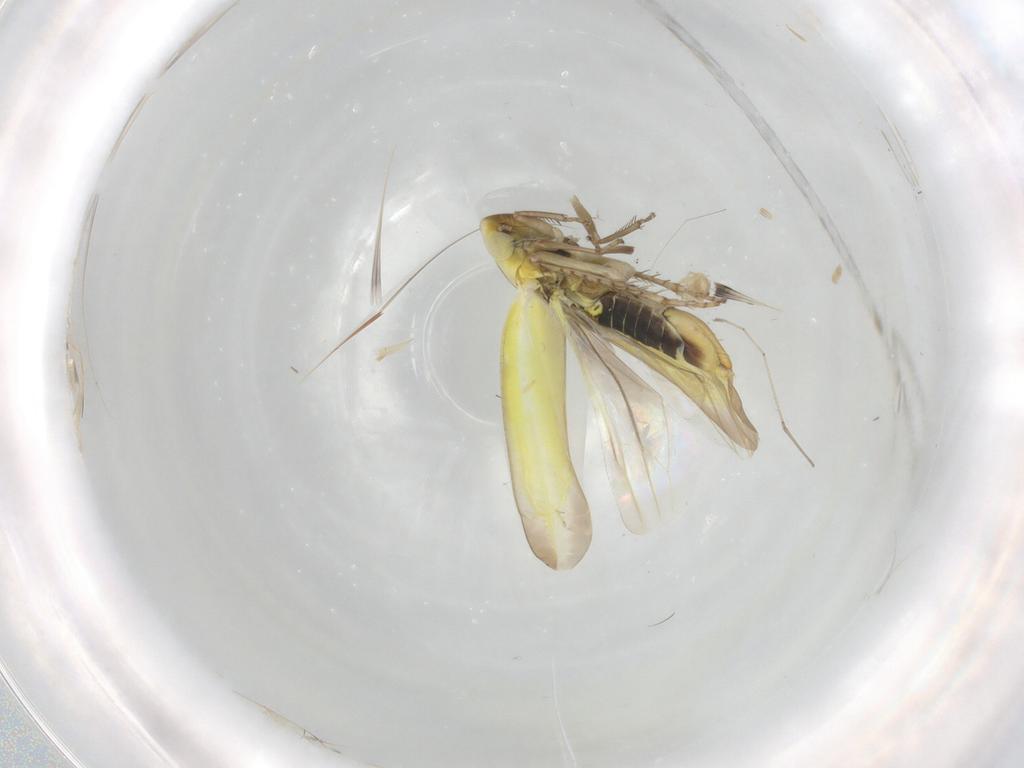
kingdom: Animalia
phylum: Arthropoda
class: Insecta
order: Hemiptera
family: Cicadellidae
